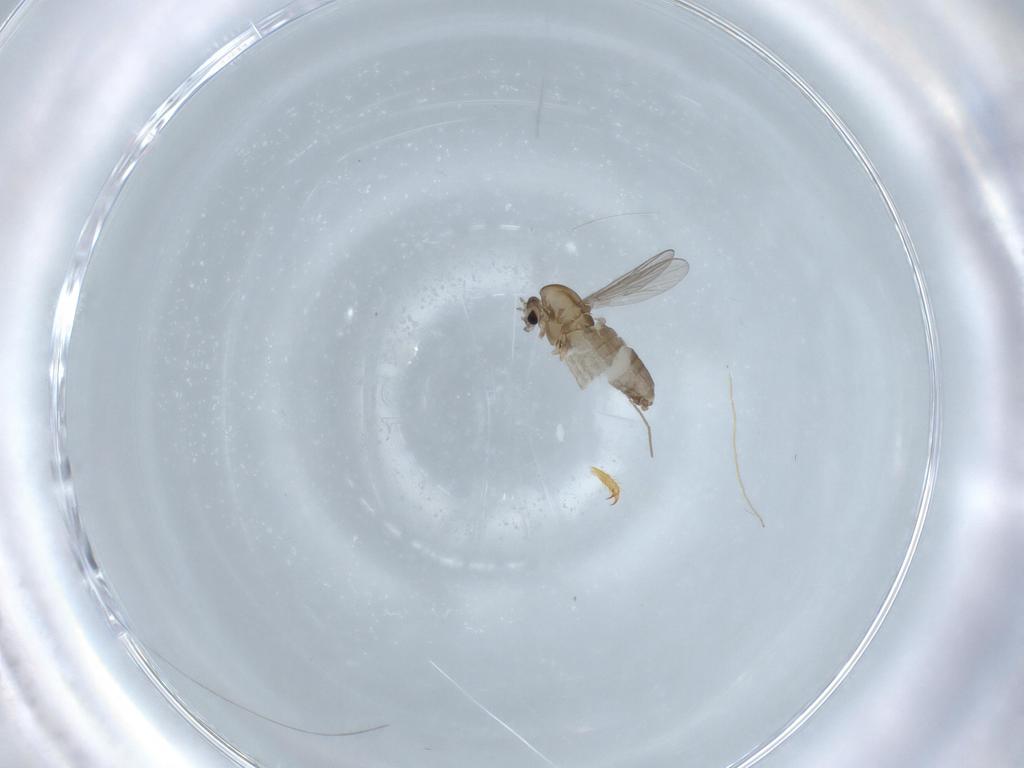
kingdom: Animalia
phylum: Arthropoda
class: Insecta
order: Diptera
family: Chironomidae
